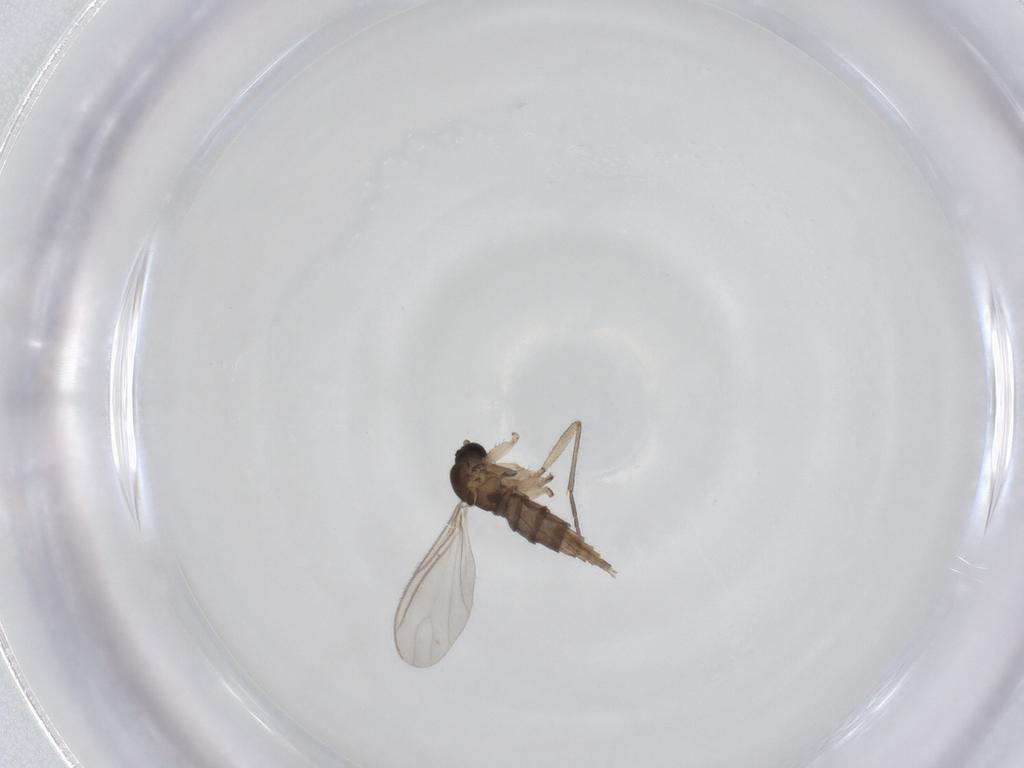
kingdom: Animalia
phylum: Arthropoda
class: Insecta
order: Diptera
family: Sciaridae
